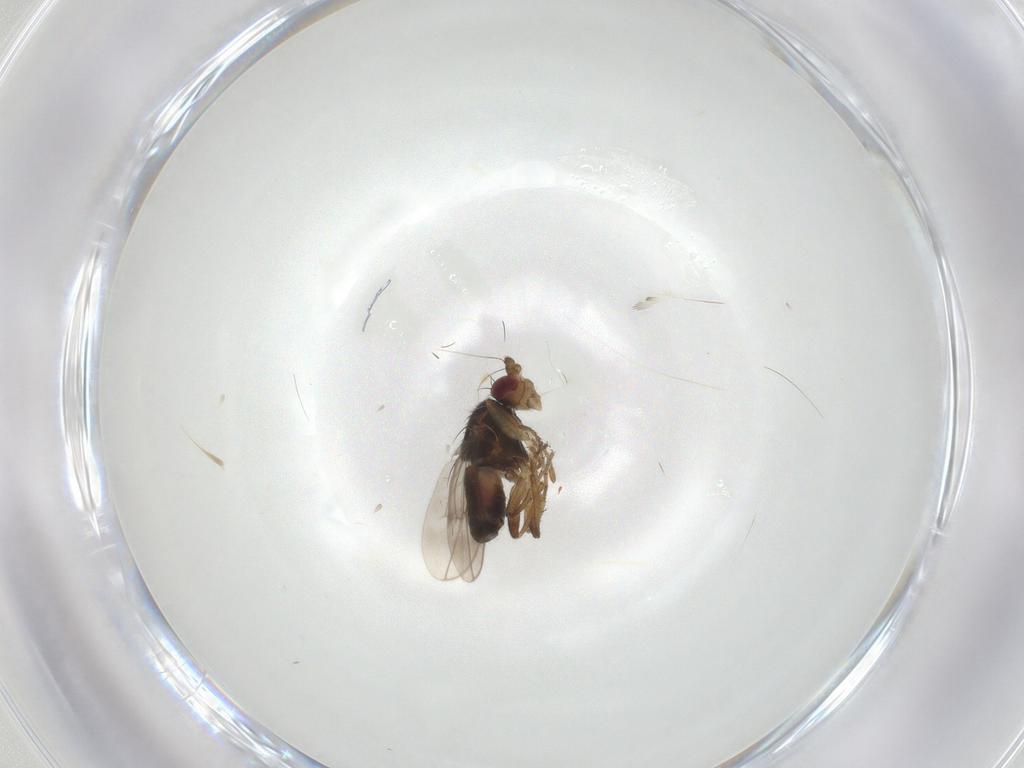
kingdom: Animalia
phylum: Arthropoda
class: Insecta
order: Diptera
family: Sphaeroceridae
